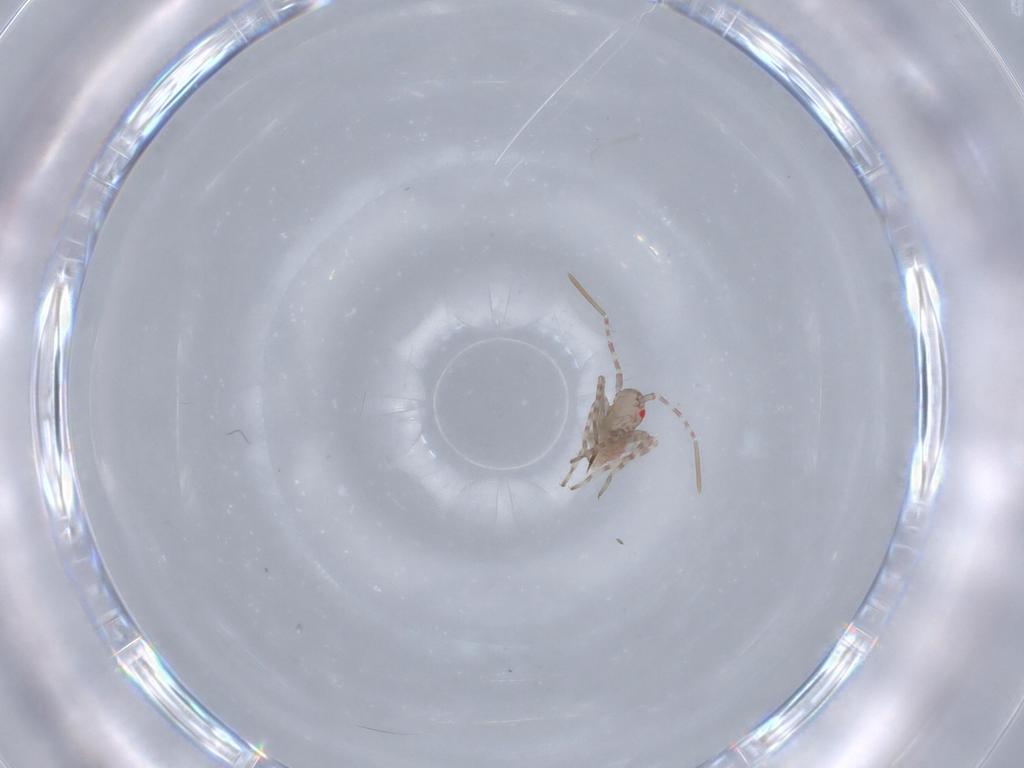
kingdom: Animalia
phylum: Arthropoda
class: Insecta
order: Hemiptera
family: Miridae
